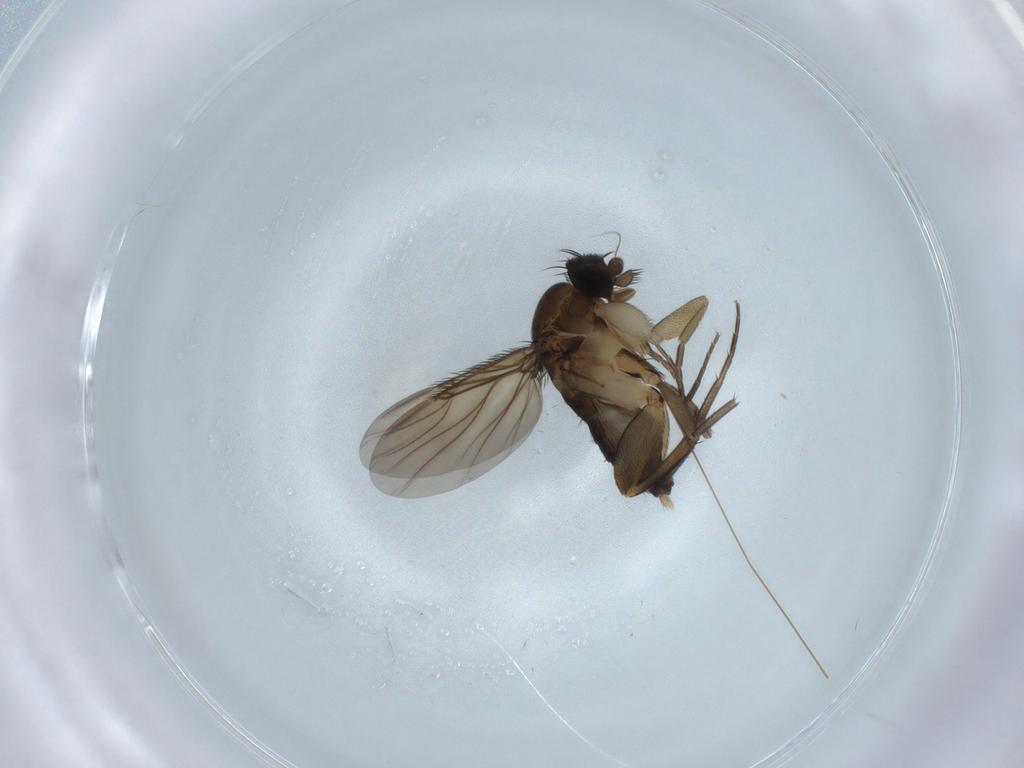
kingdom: Animalia
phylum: Arthropoda
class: Insecta
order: Diptera
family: Phoridae
